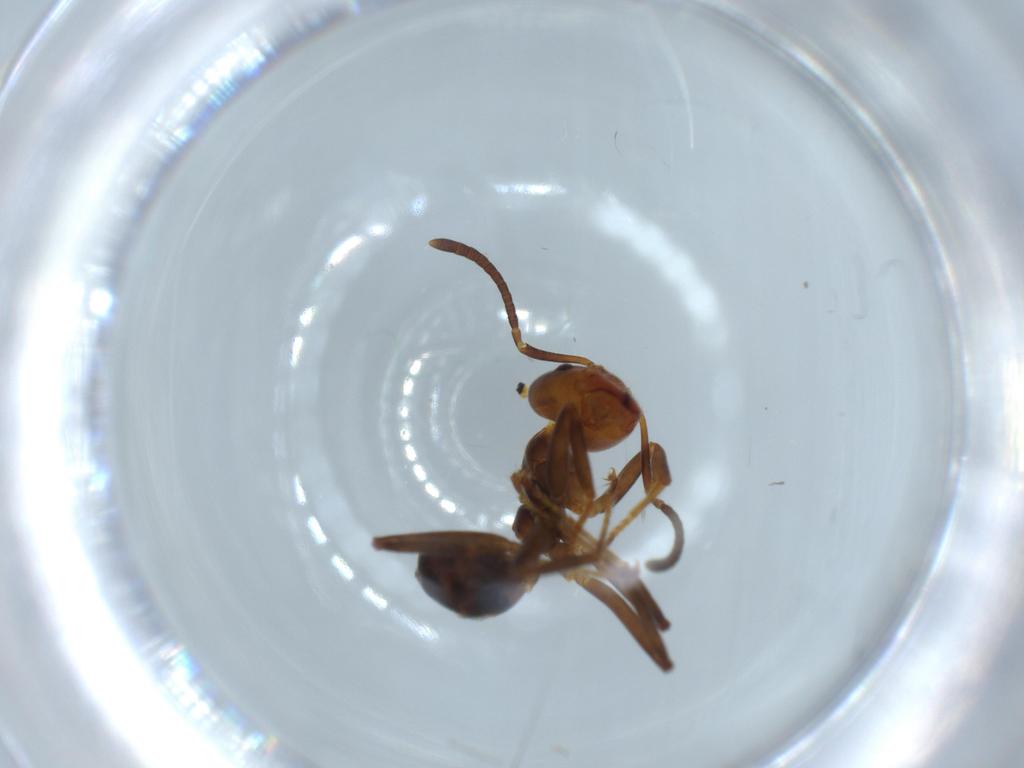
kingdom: Animalia
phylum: Arthropoda
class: Insecta
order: Hymenoptera
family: Formicidae
